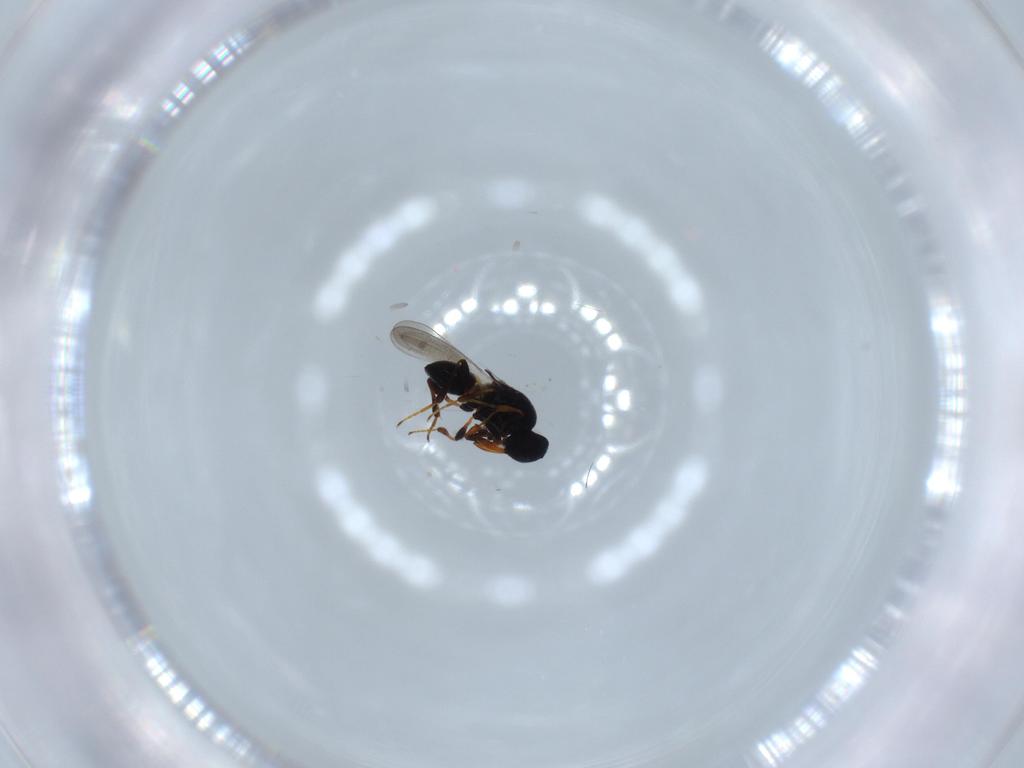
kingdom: Animalia
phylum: Arthropoda
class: Insecta
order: Hymenoptera
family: Platygastridae
